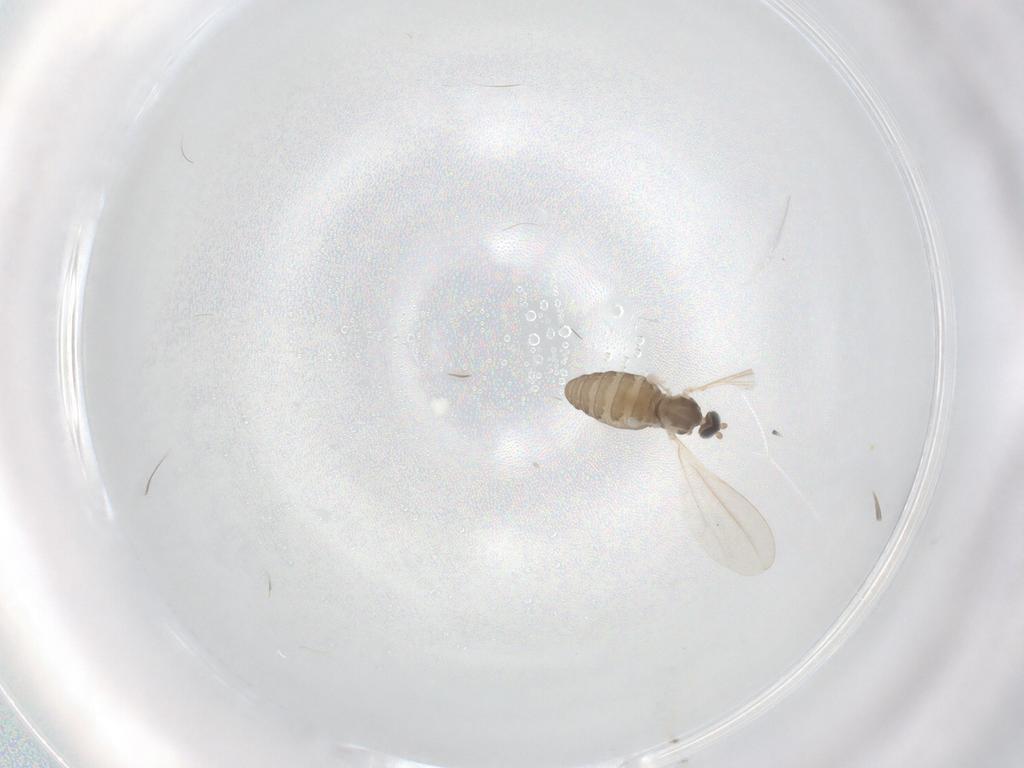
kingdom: Animalia
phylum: Arthropoda
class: Insecta
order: Diptera
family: Cecidomyiidae
